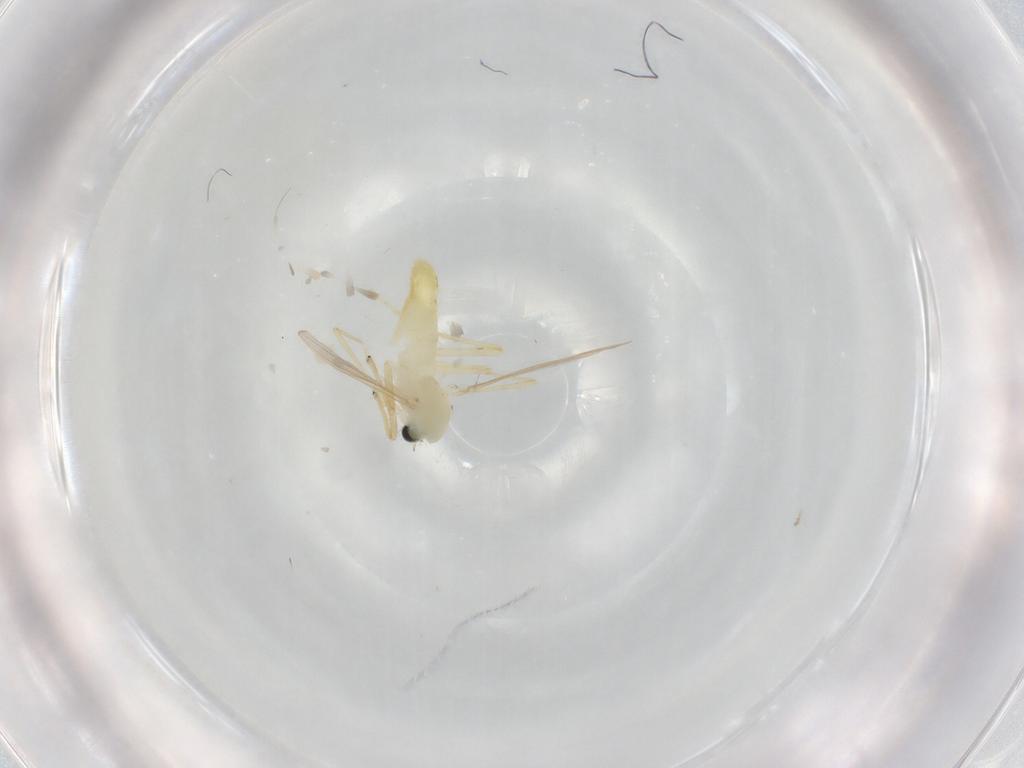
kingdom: Animalia
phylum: Arthropoda
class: Insecta
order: Diptera
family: Chironomidae
